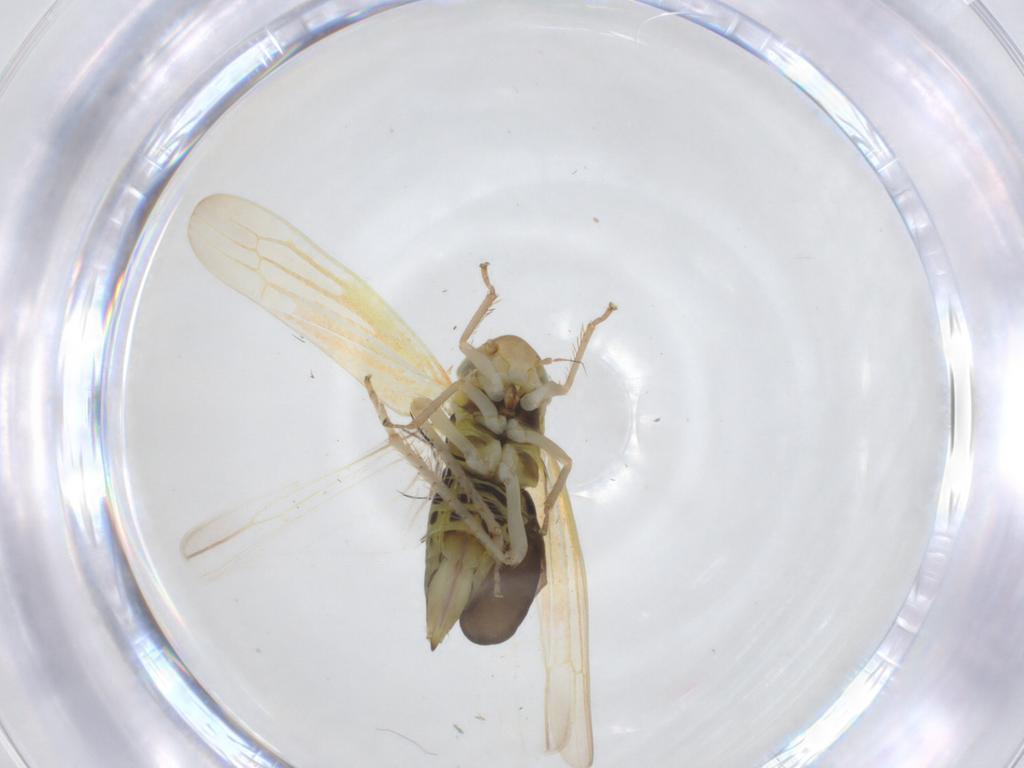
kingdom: Animalia
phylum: Arthropoda
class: Insecta
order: Hemiptera
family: Cicadellidae
